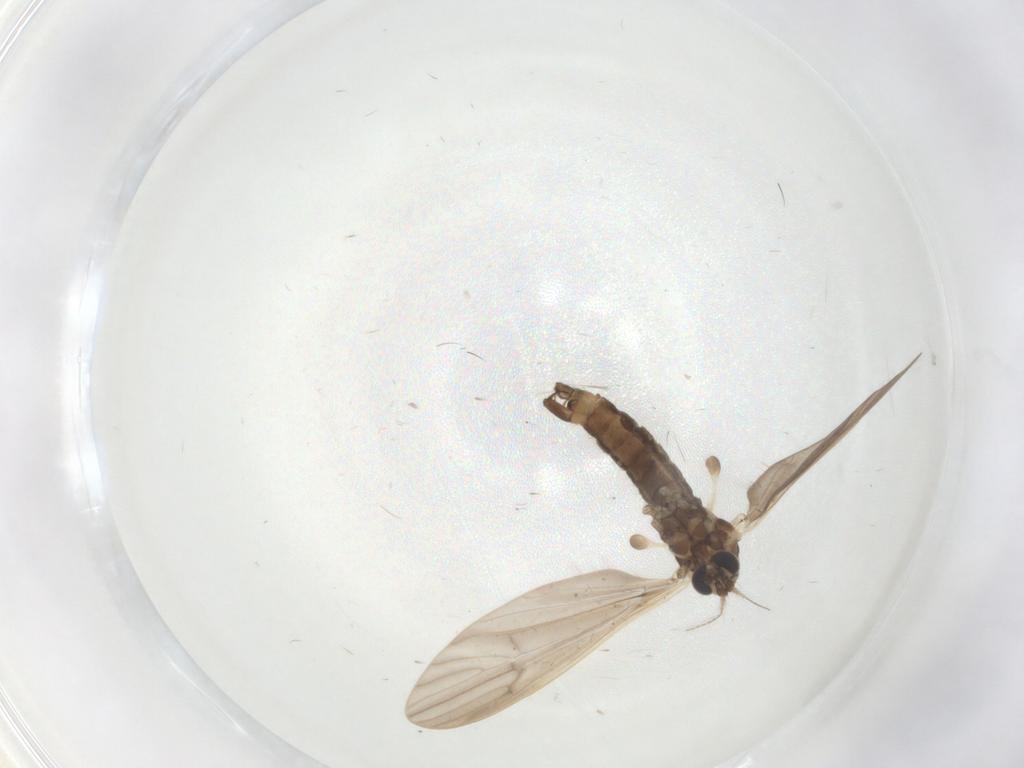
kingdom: Animalia
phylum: Arthropoda
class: Insecta
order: Diptera
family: Limoniidae
